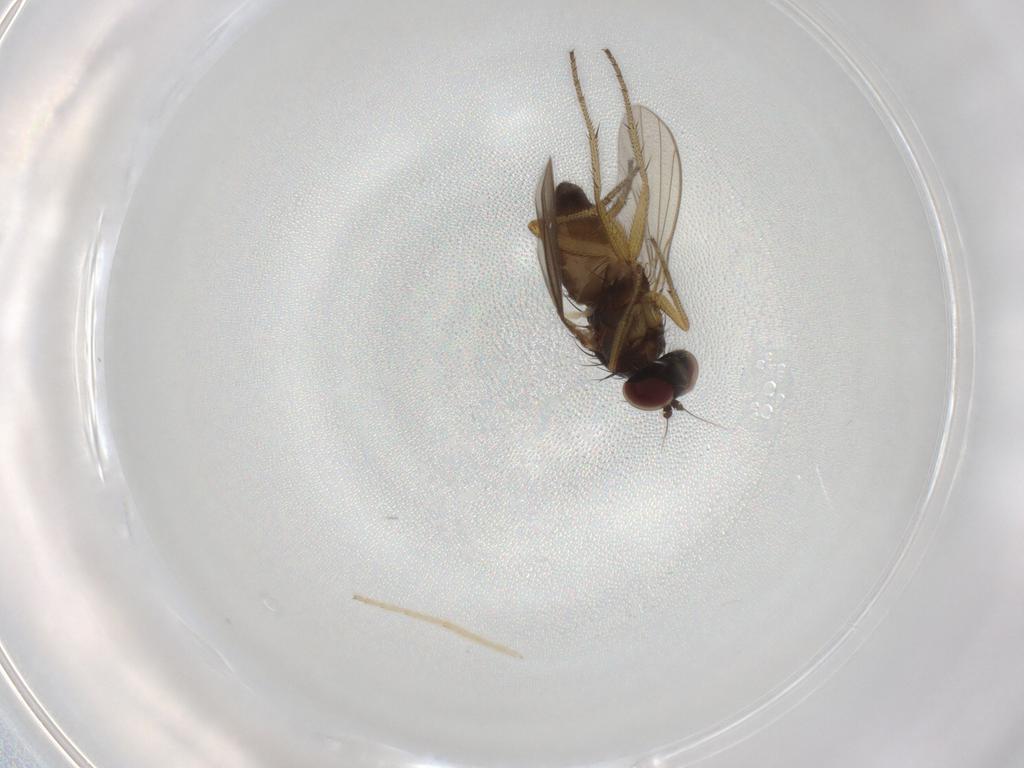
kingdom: Animalia
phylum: Arthropoda
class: Insecta
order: Diptera
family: Chironomidae
